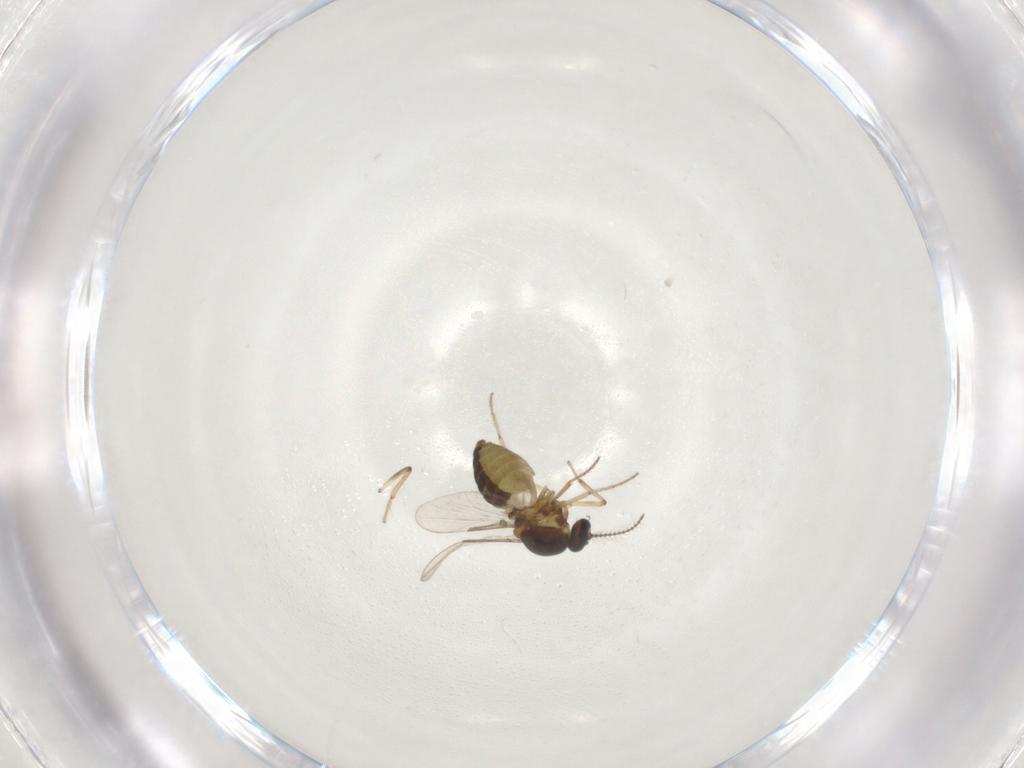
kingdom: Animalia
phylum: Arthropoda
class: Insecta
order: Diptera
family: Ceratopogonidae
